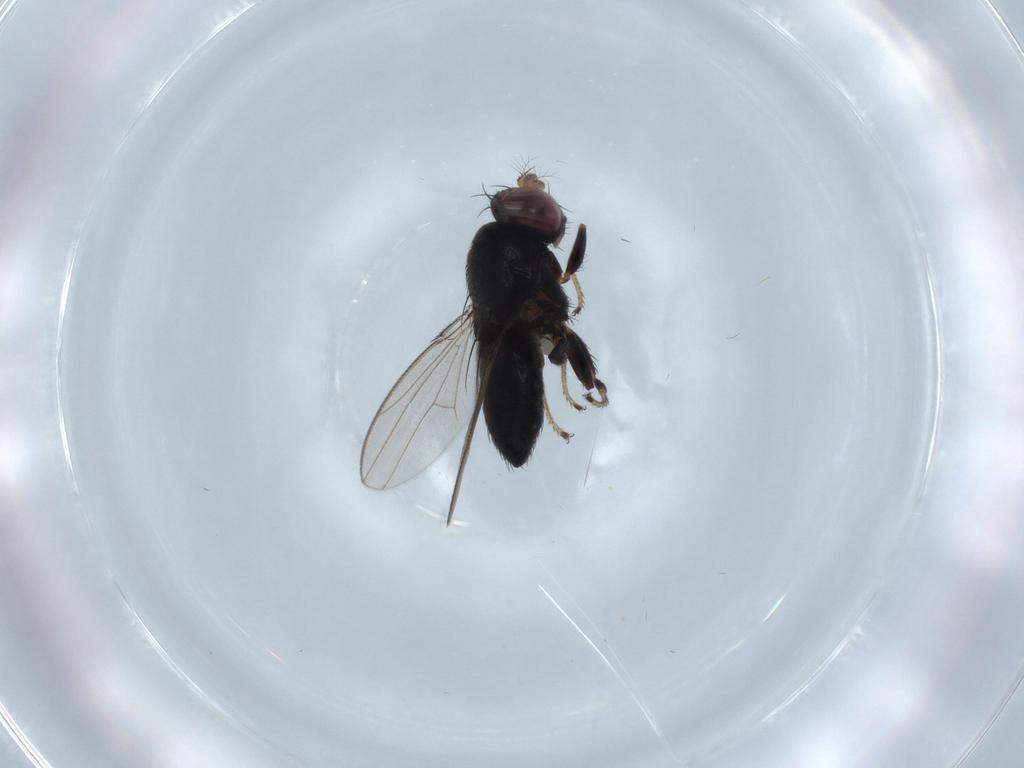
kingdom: Animalia
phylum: Arthropoda
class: Insecta
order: Diptera
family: Ephydridae
